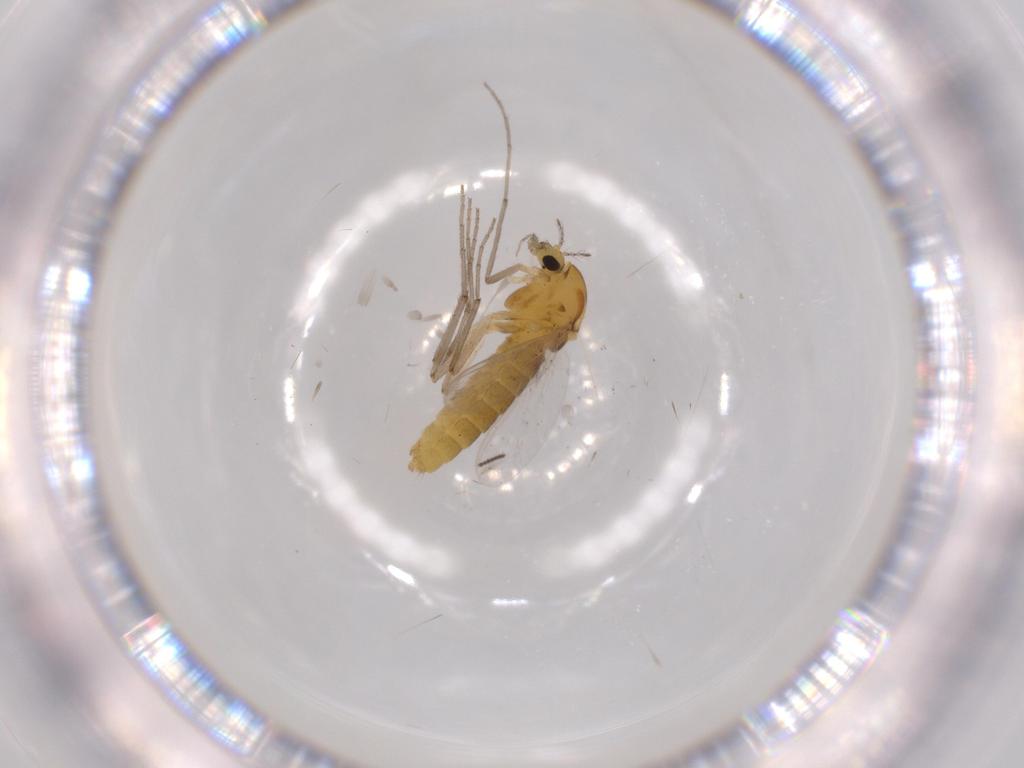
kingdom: Animalia
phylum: Arthropoda
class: Insecta
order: Diptera
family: Chironomidae
